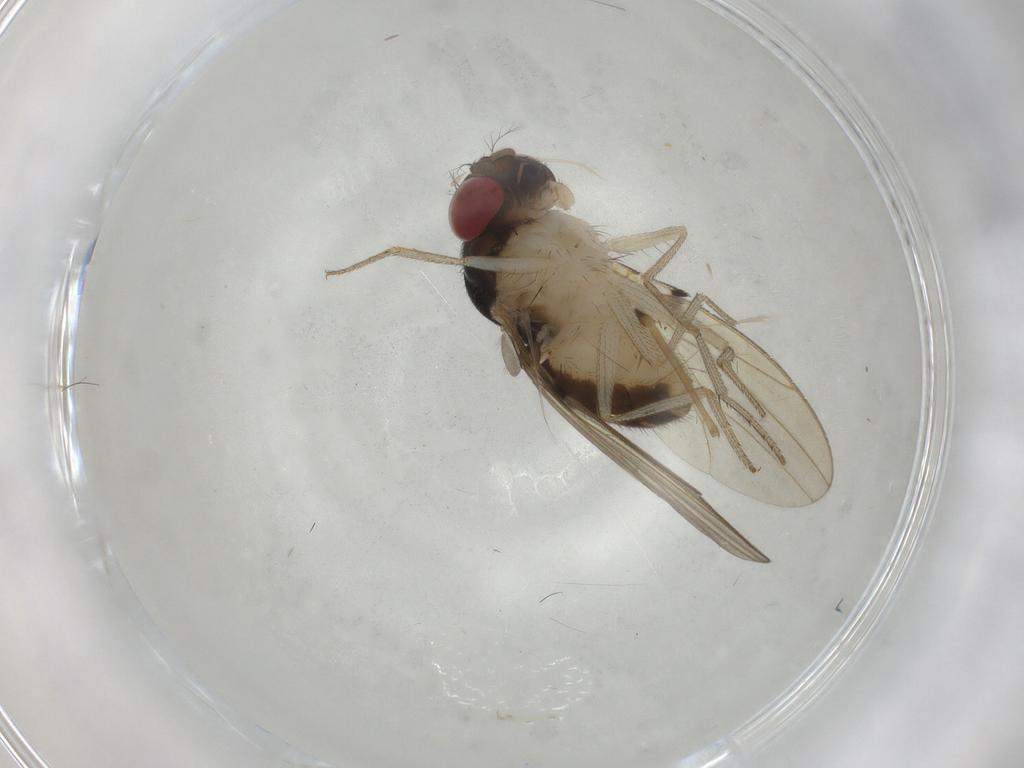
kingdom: Animalia
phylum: Arthropoda
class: Insecta
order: Diptera
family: Drosophilidae
